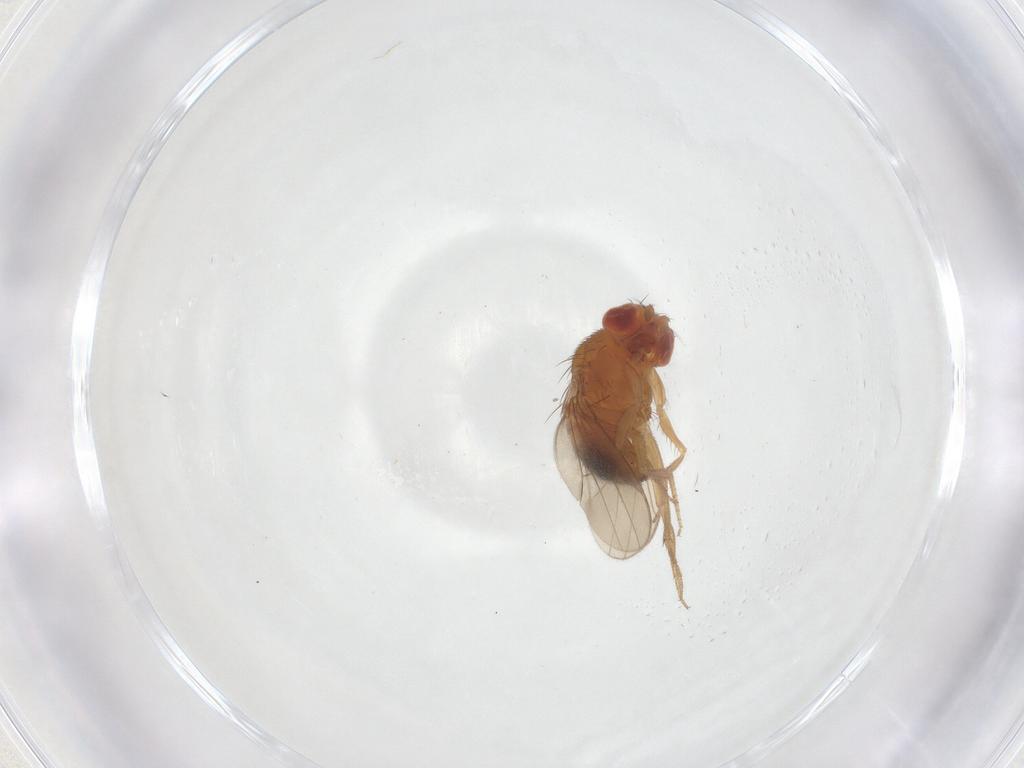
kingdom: Animalia
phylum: Arthropoda
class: Insecta
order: Diptera
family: Drosophilidae
